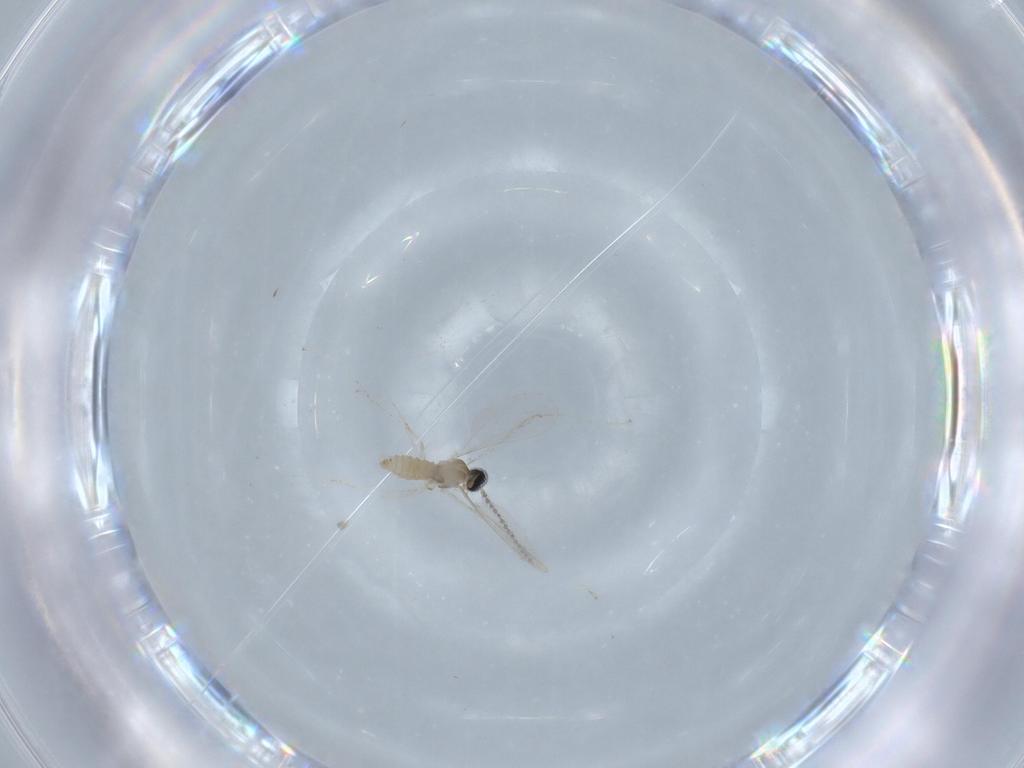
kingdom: Animalia
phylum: Arthropoda
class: Insecta
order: Diptera
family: Cecidomyiidae
